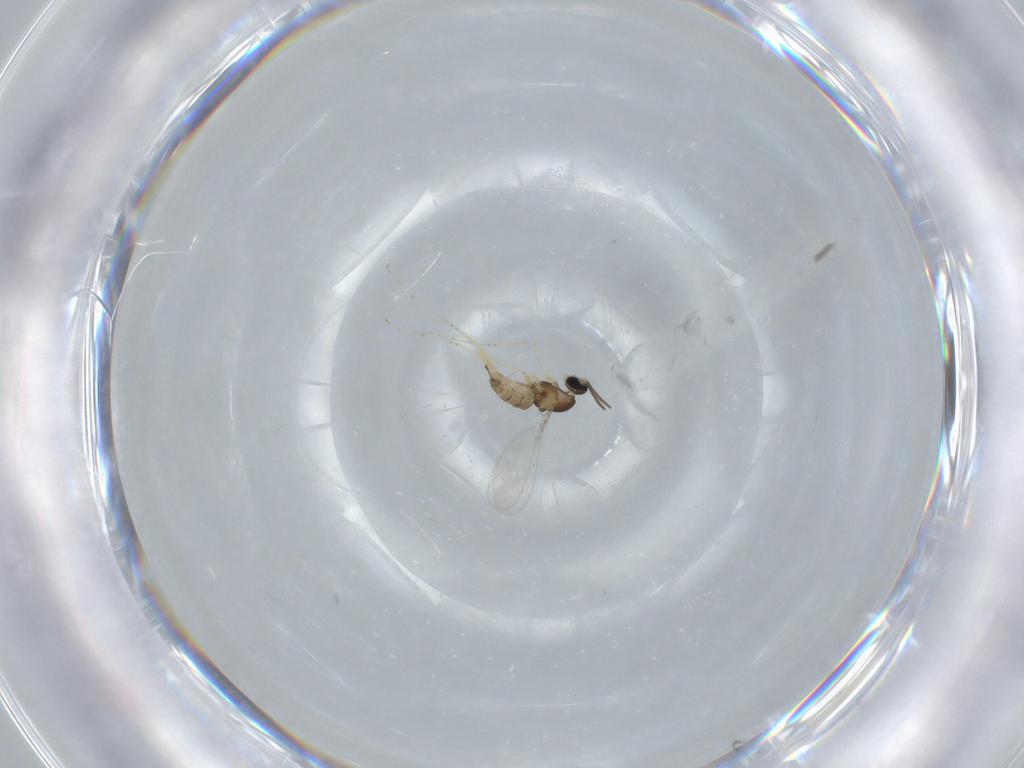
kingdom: Animalia
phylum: Arthropoda
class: Insecta
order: Diptera
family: Cecidomyiidae
